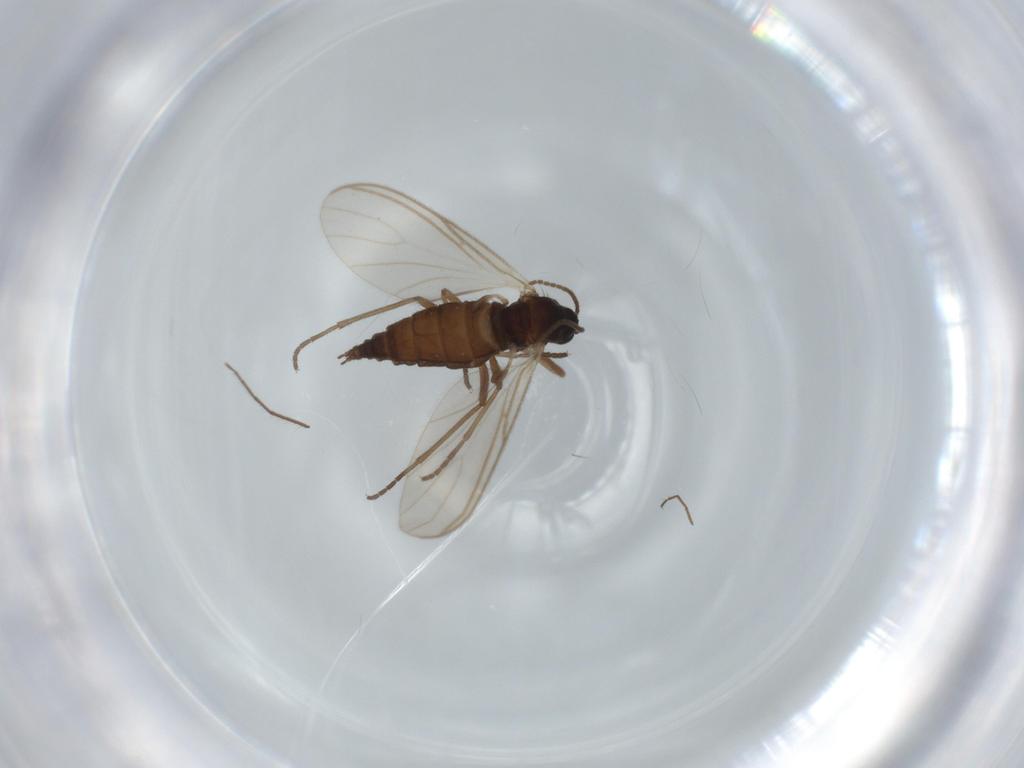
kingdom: Animalia
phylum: Arthropoda
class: Insecta
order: Diptera
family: Sciaridae
